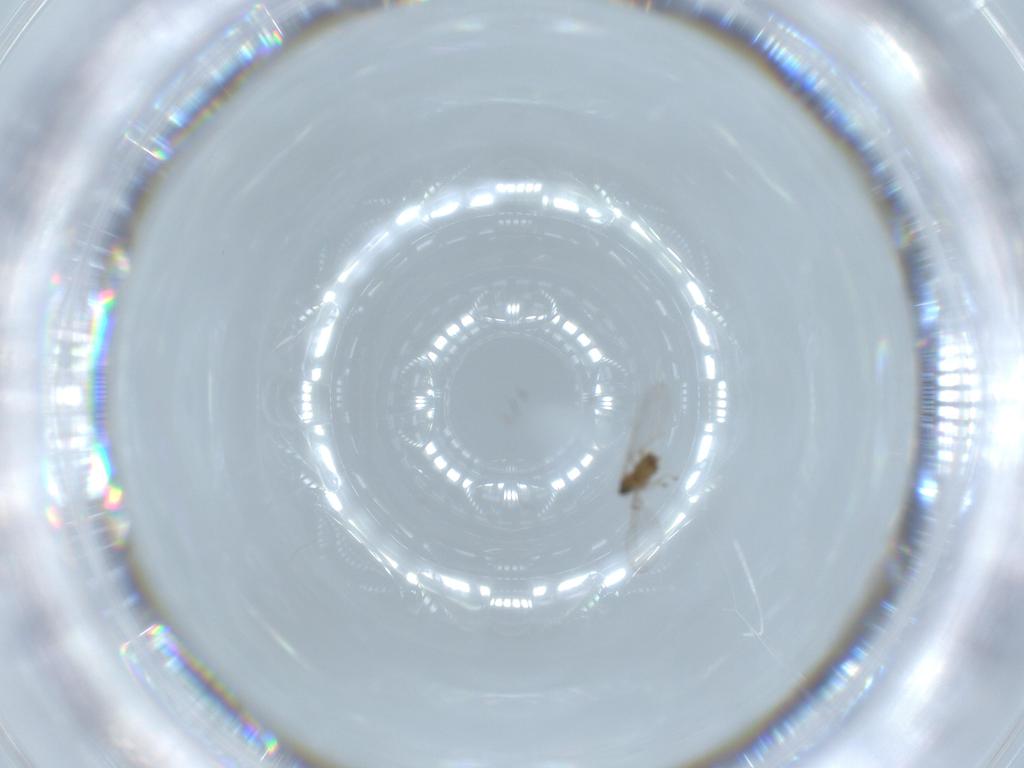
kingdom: Animalia
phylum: Arthropoda
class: Insecta
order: Diptera
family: Cecidomyiidae
